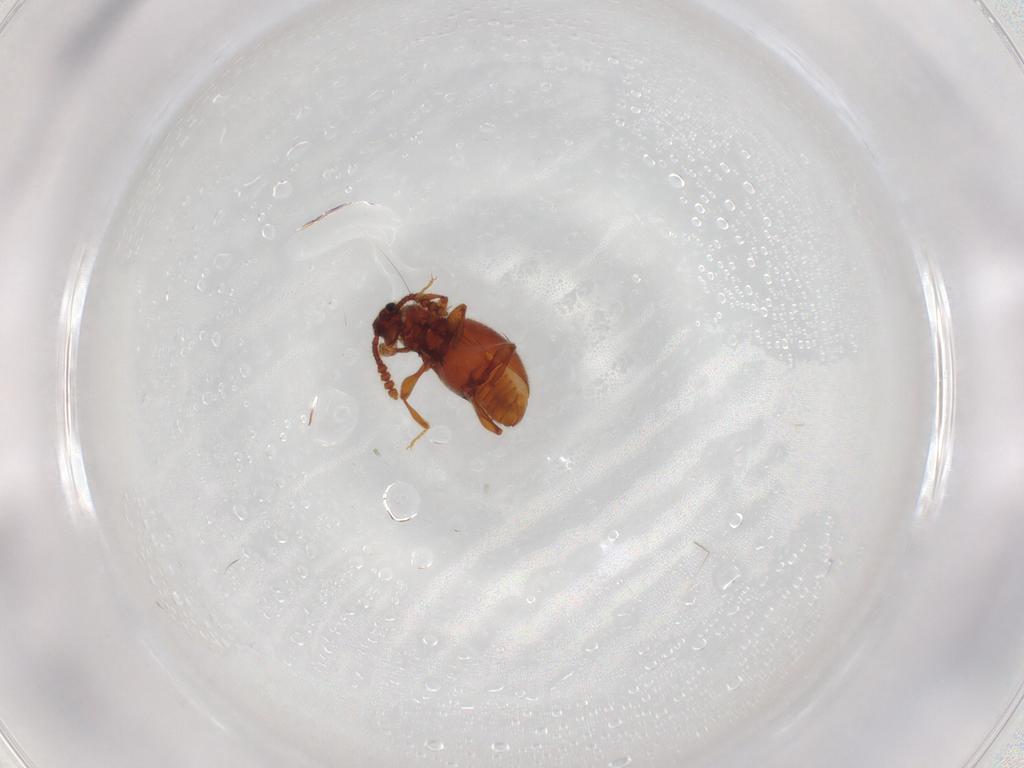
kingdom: Animalia
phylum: Arthropoda
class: Insecta
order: Coleoptera
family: Staphylinidae
